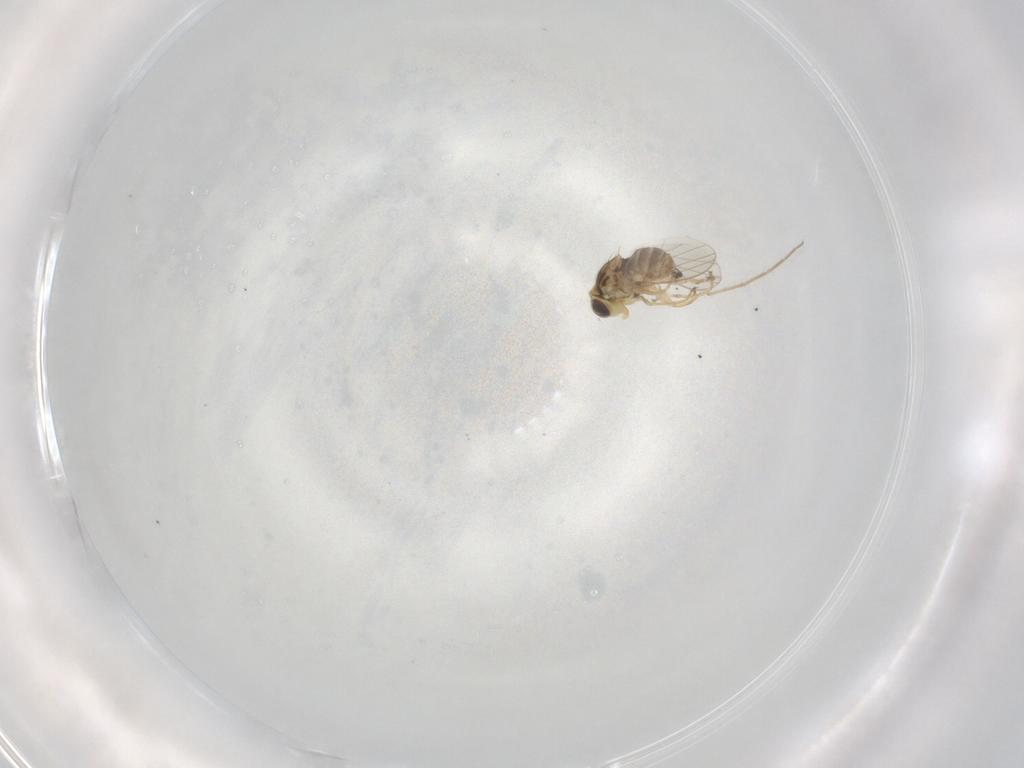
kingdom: Animalia
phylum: Arthropoda
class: Insecta
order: Diptera
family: Chyromyidae
